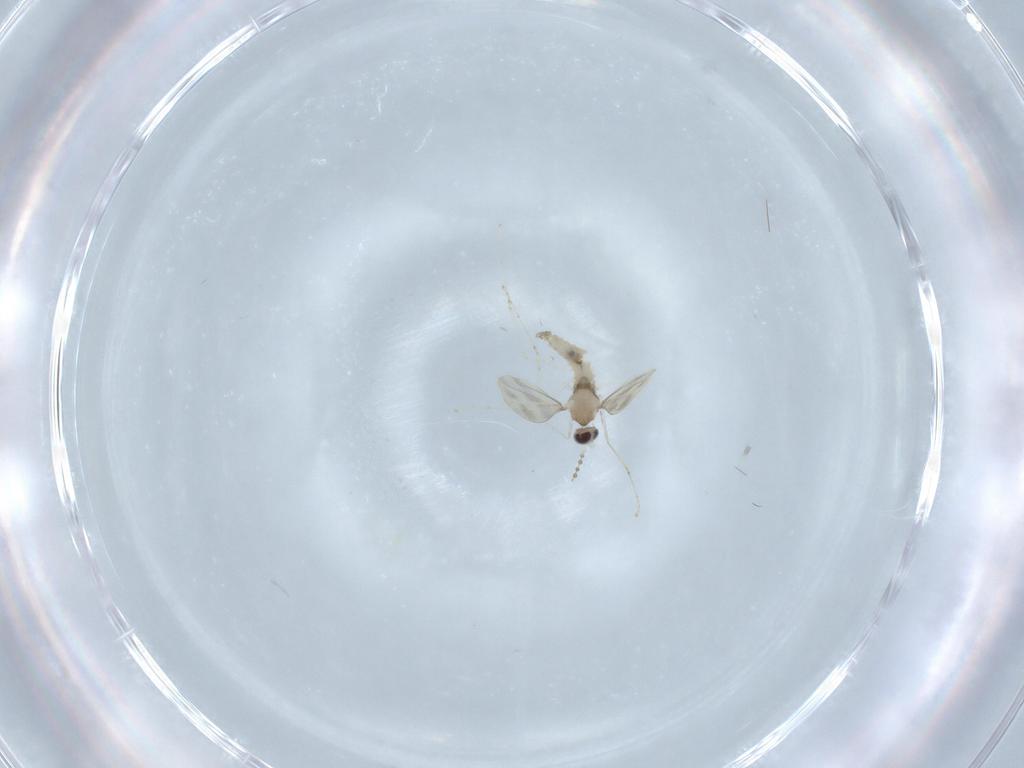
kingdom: Animalia
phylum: Arthropoda
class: Insecta
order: Diptera
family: Cecidomyiidae
